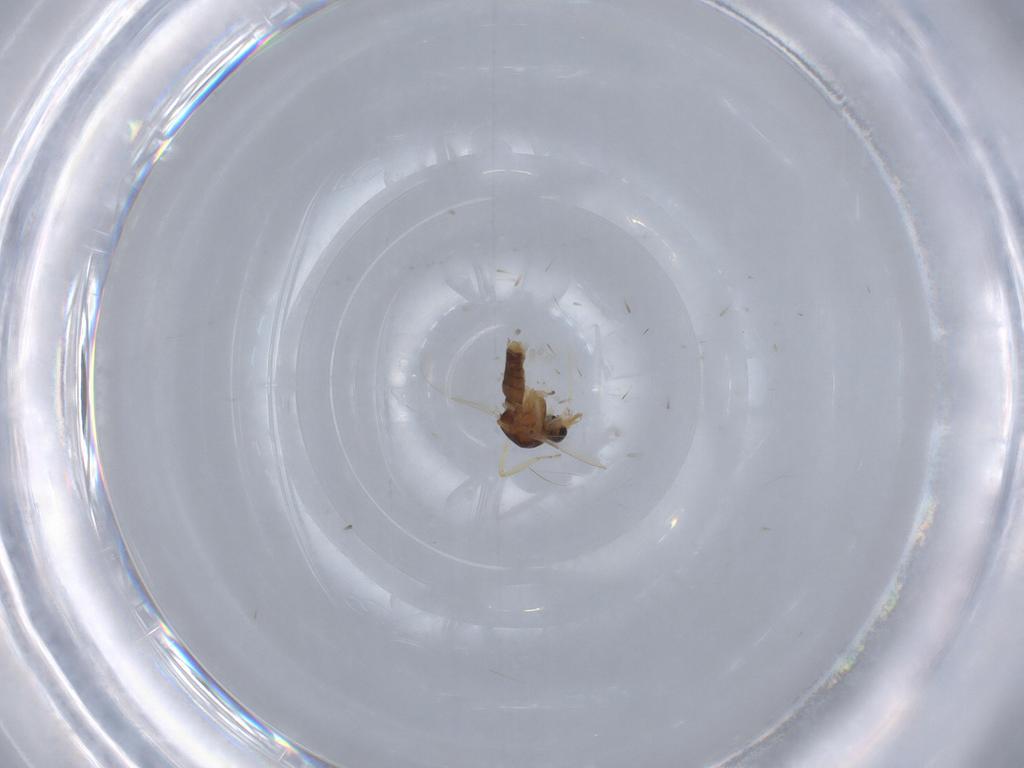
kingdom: Animalia
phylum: Arthropoda
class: Insecta
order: Diptera
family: Ceratopogonidae
